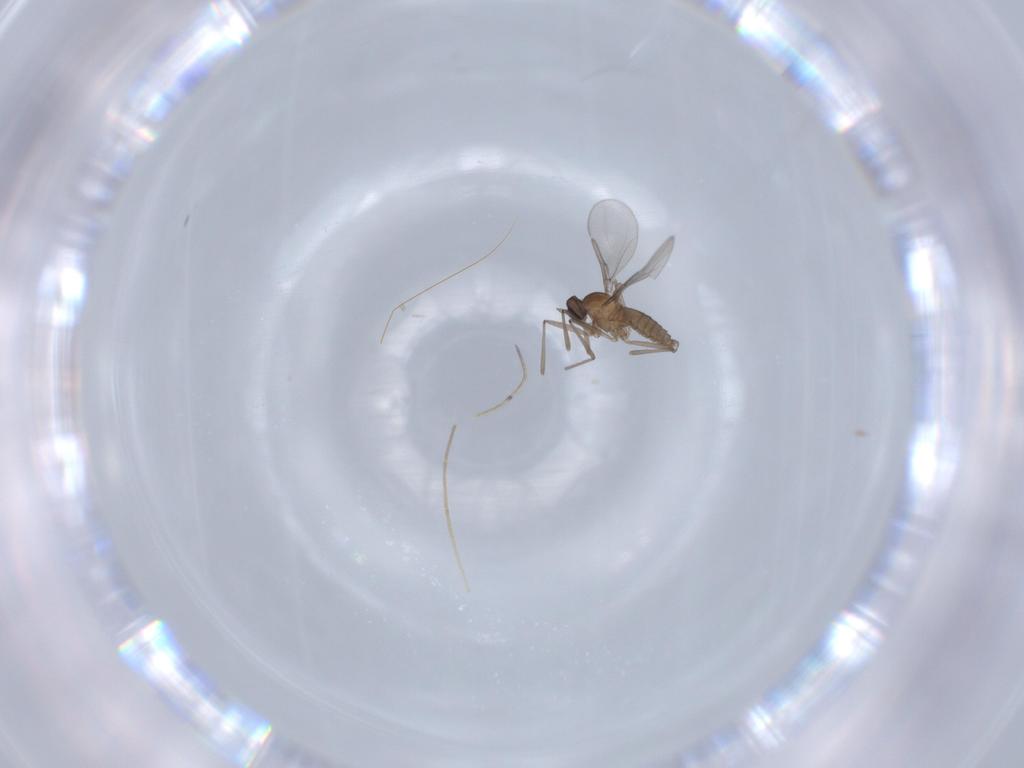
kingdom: Animalia
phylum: Arthropoda
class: Insecta
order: Diptera
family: Cecidomyiidae
